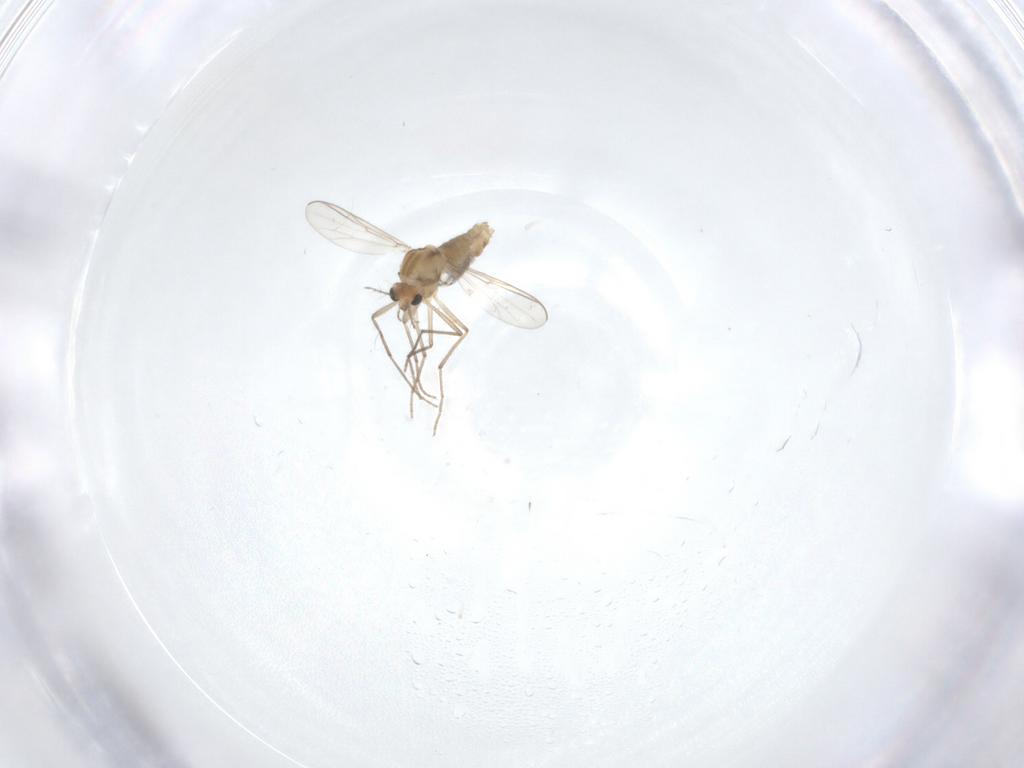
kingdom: Animalia
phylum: Arthropoda
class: Insecta
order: Diptera
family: Chironomidae
